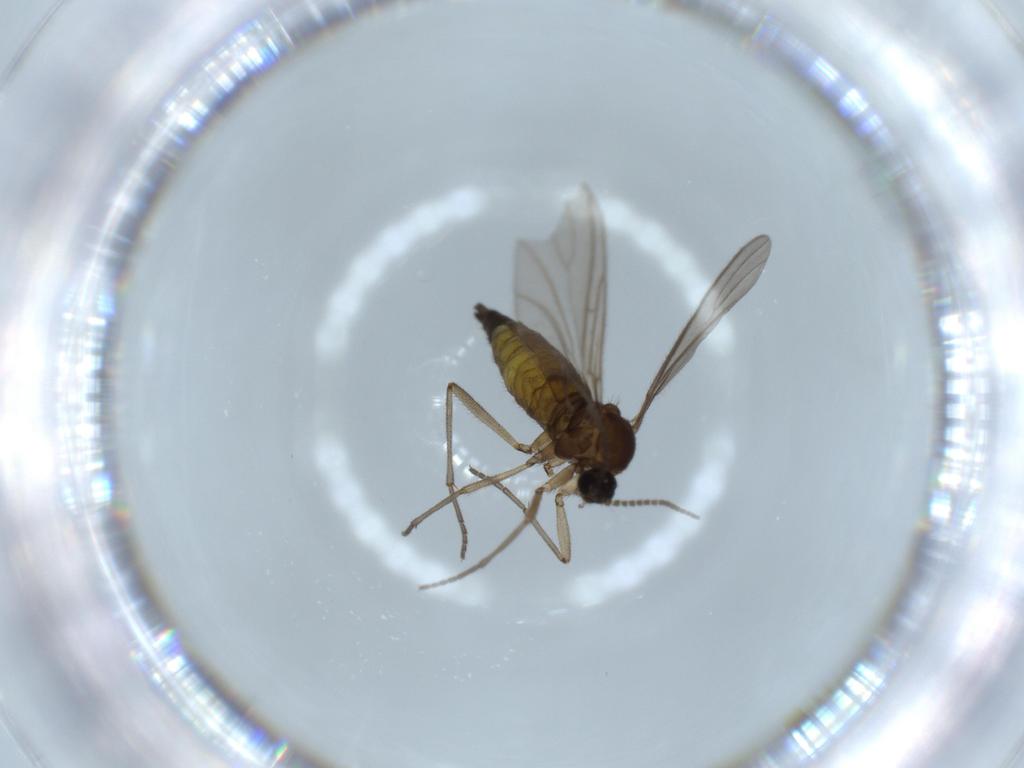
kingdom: Animalia
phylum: Arthropoda
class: Insecta
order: Diptera
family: Sciaridae
